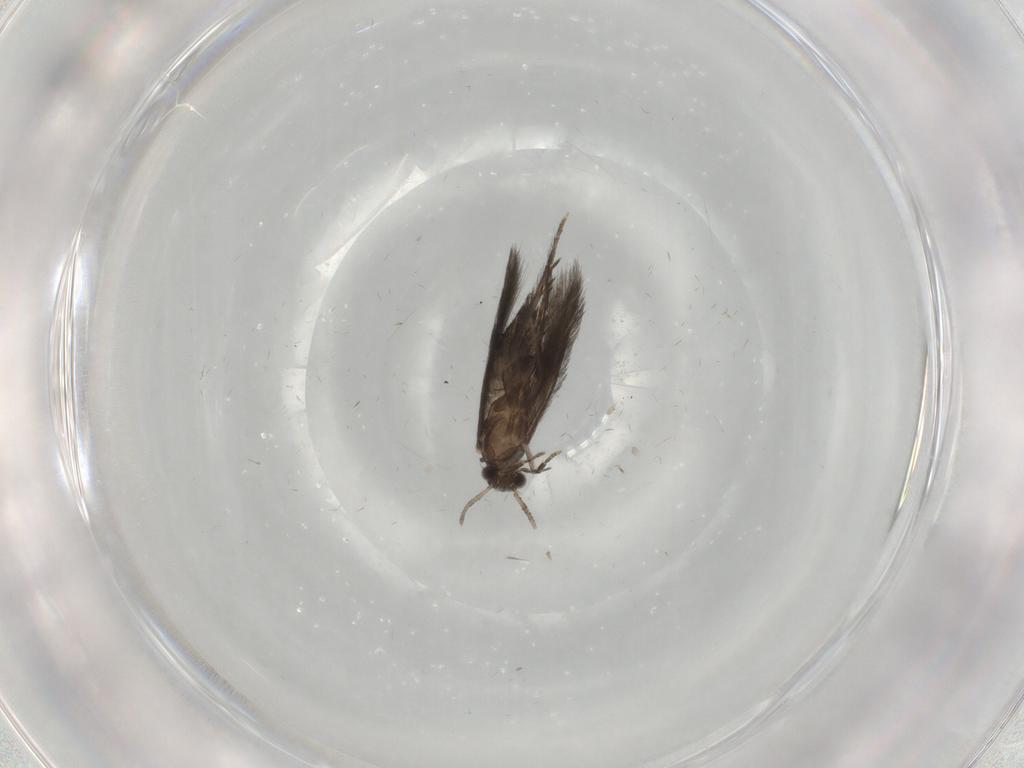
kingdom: Animalia
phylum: Arthropoda
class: Insecta
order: Trichoptera
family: Hydroptilidae
